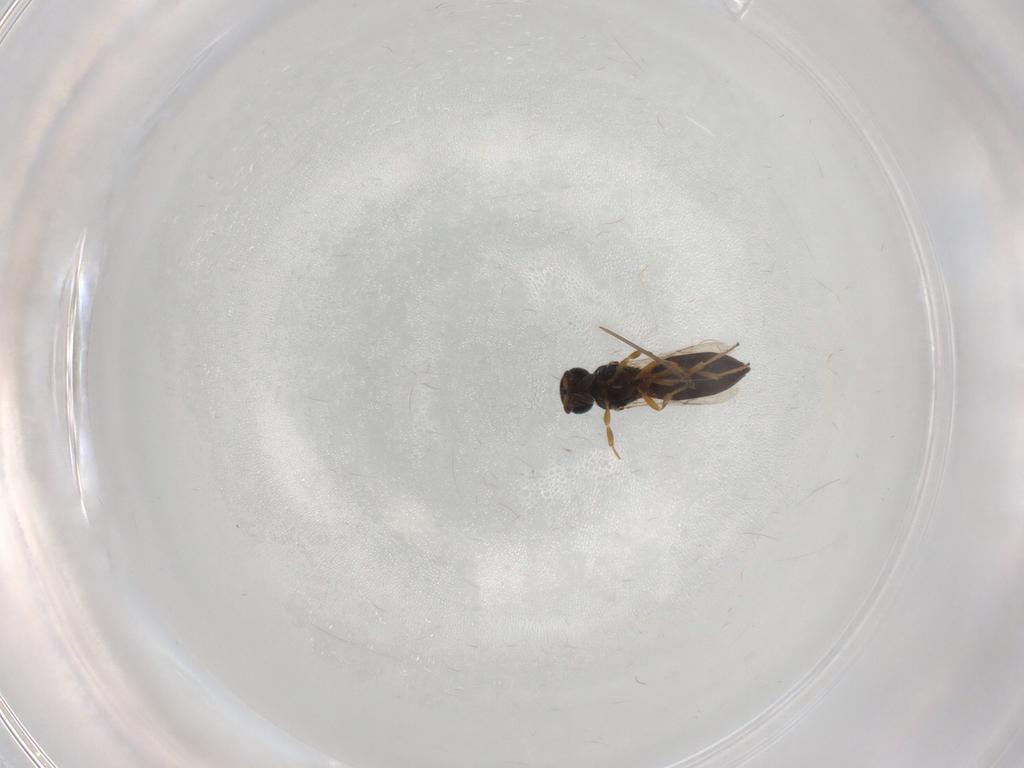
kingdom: Animalia
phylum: Arthropoda
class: Insecta
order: Hymenoptera
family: Scelionidae
